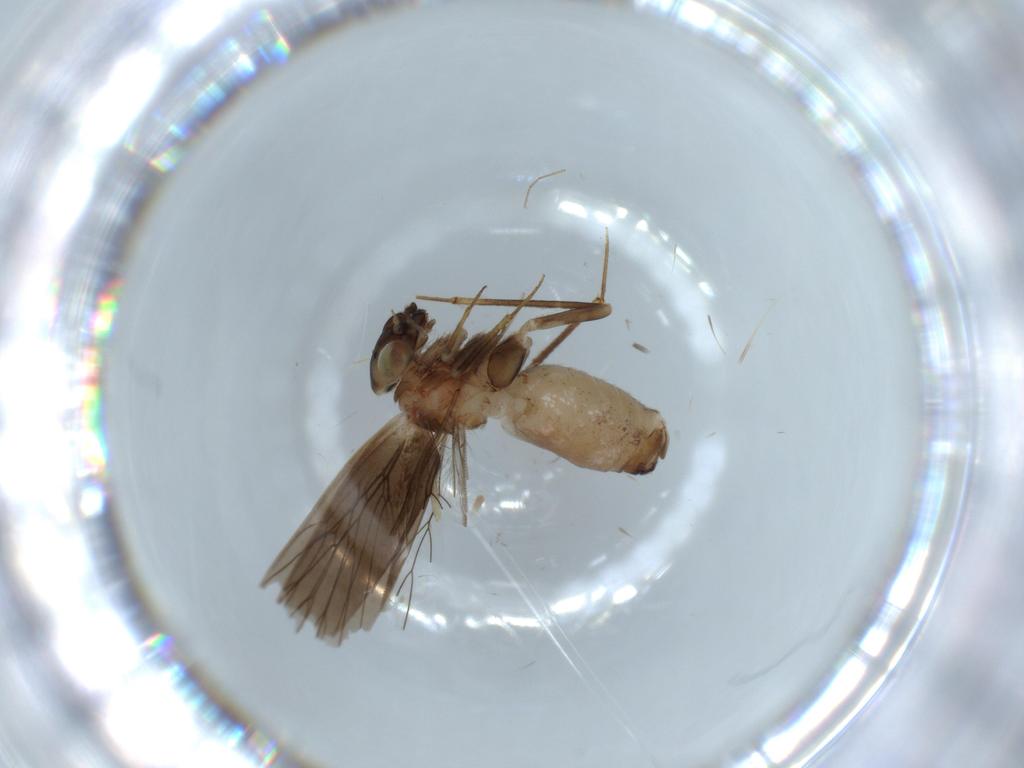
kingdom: Animalia
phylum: Arthropoda
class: Insecta
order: Psocodea
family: Lepidopsocidae
